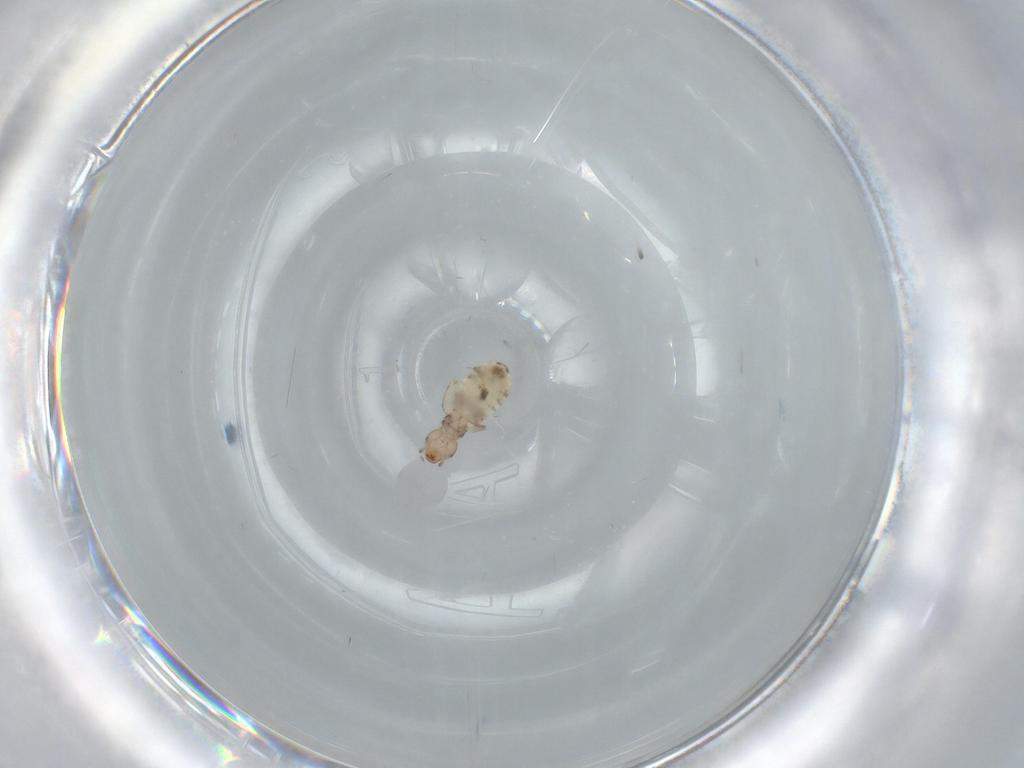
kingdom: Animalia
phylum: Arthropoda
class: Insecta
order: Psocodea
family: Liposcelididae
